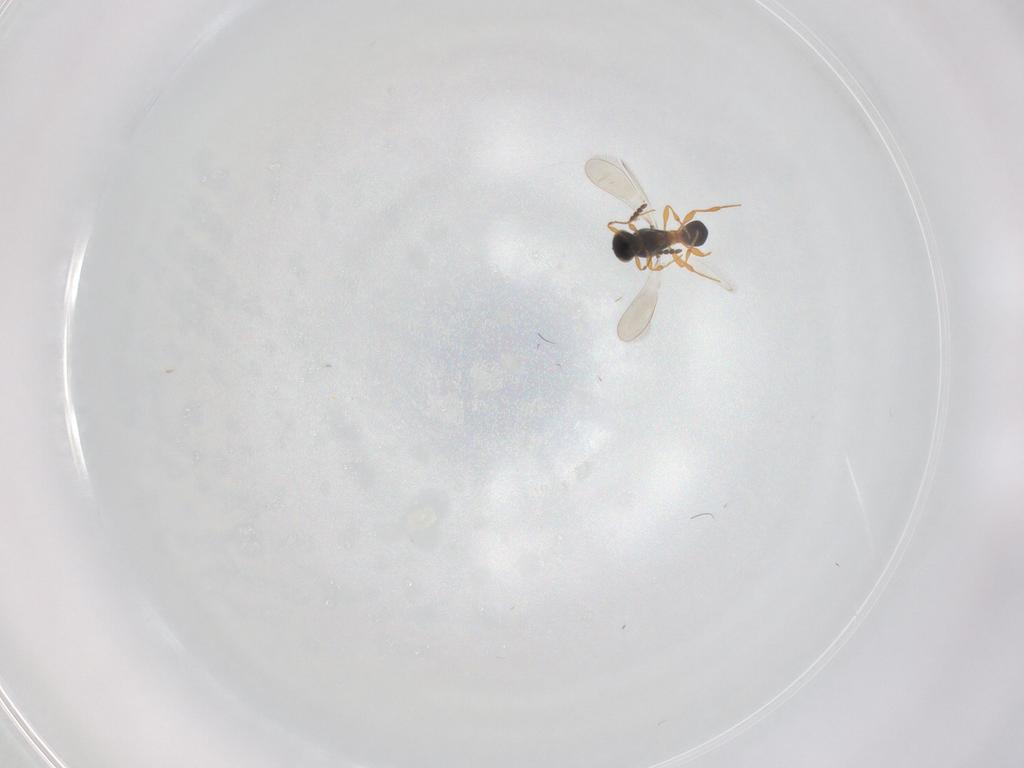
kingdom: Animalia
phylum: Arthropoda
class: Insecta
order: Hymenoptera
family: Platygastridae
